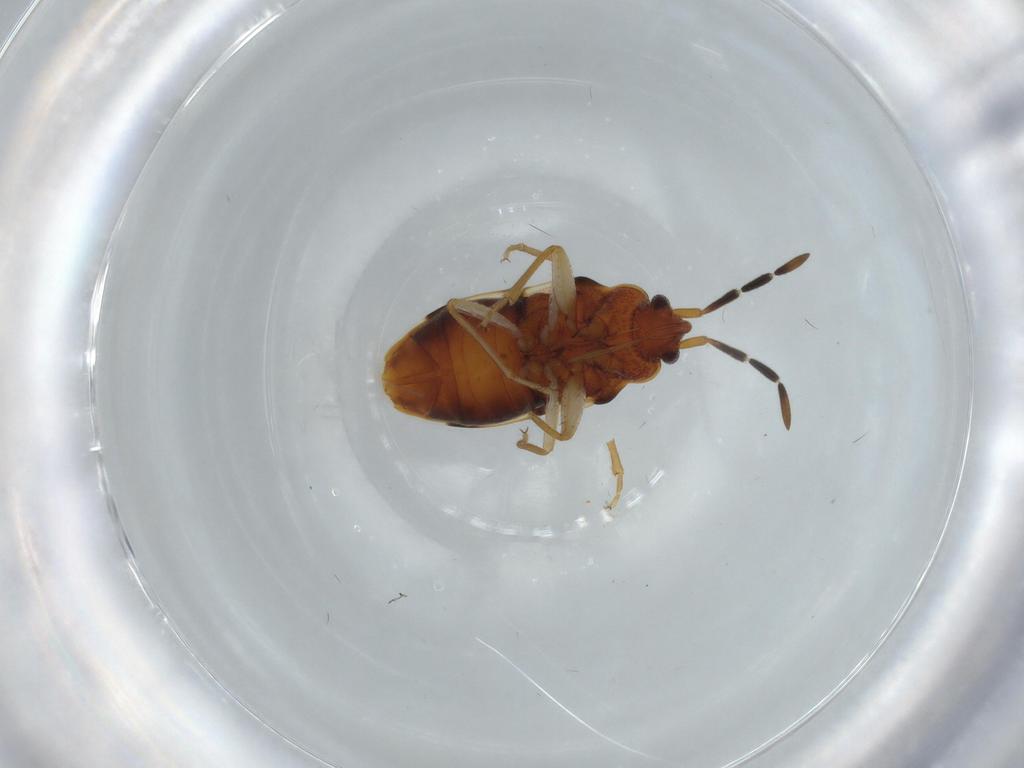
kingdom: Animalia
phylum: Arthropoda
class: Insecta
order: Hemiptera
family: Rhyparochromidae
